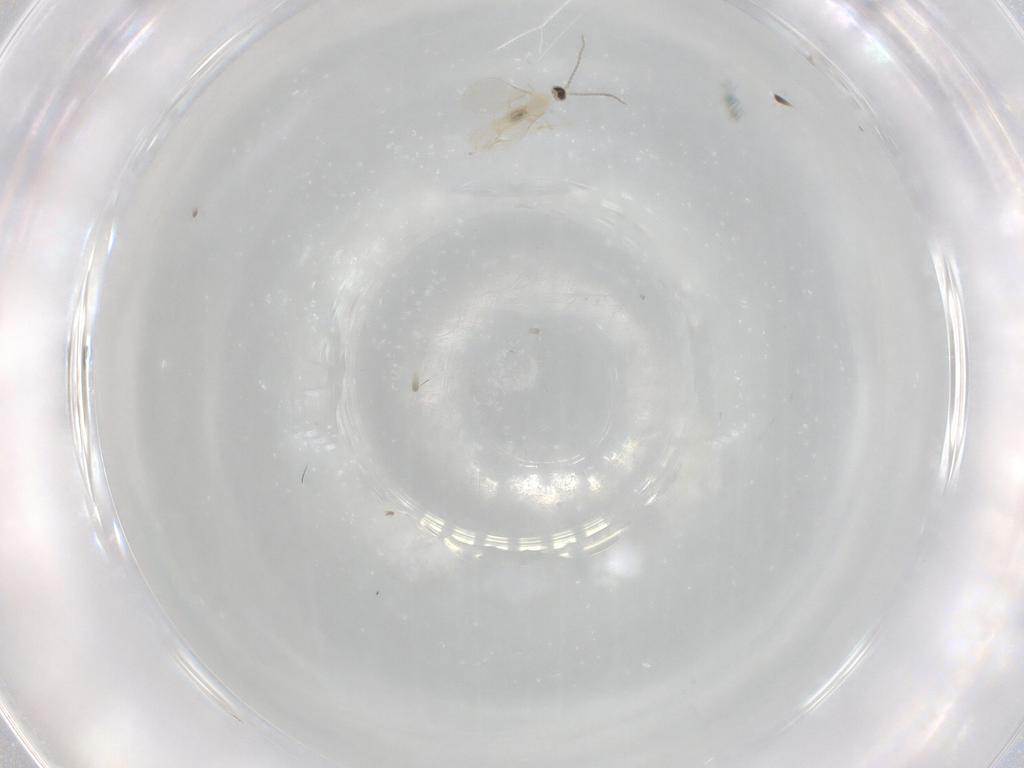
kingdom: Animalia
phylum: Arthropoda
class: Insecta
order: Diptera
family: Cecidomyiidae
